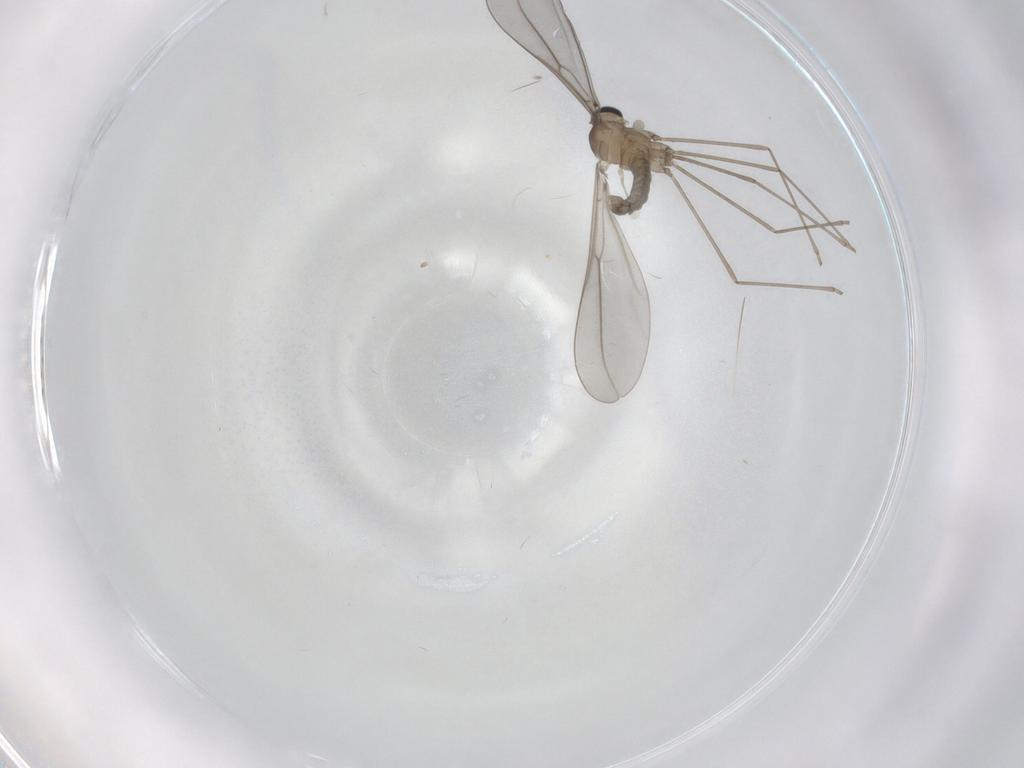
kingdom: Animalia
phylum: Arthropoda
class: Insecta
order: Diptera
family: Cecidomyiidae
